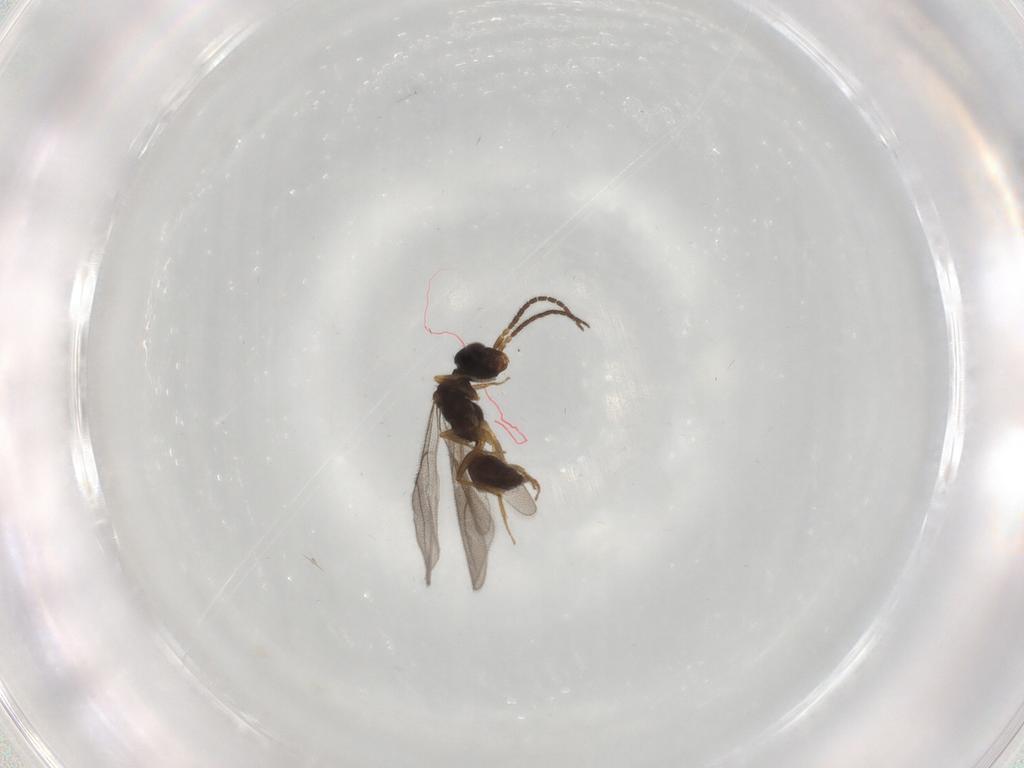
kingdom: Animalia
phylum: Arthropoda
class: Insecta
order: Hymenoptera
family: Bethylidae
